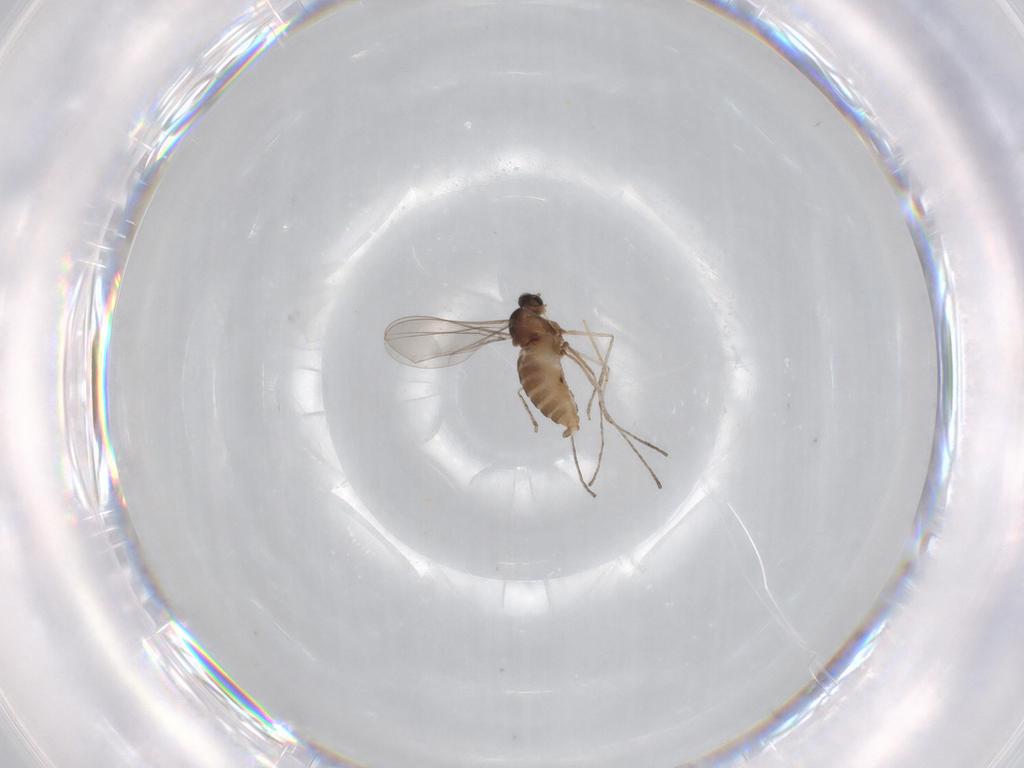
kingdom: Animalia
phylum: Arthropoda
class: Insecta
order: Diptera
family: Cecidomyiidae
